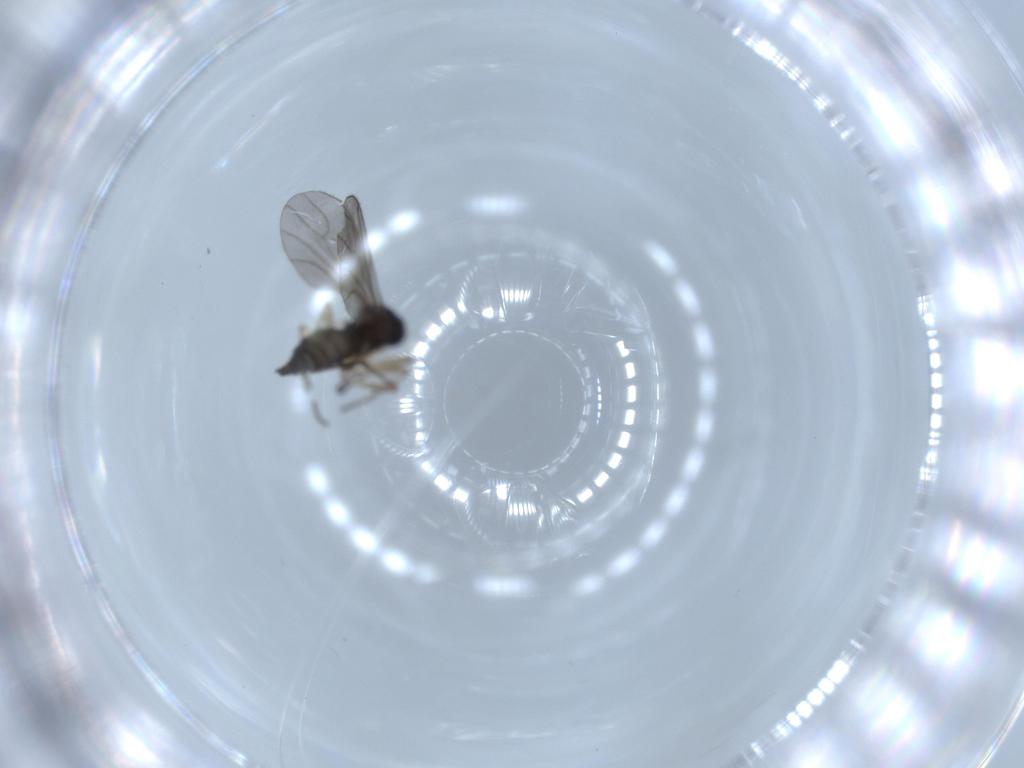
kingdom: Animalia
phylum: Arthropoda
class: Insecta
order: Diptera
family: Sciaridae
